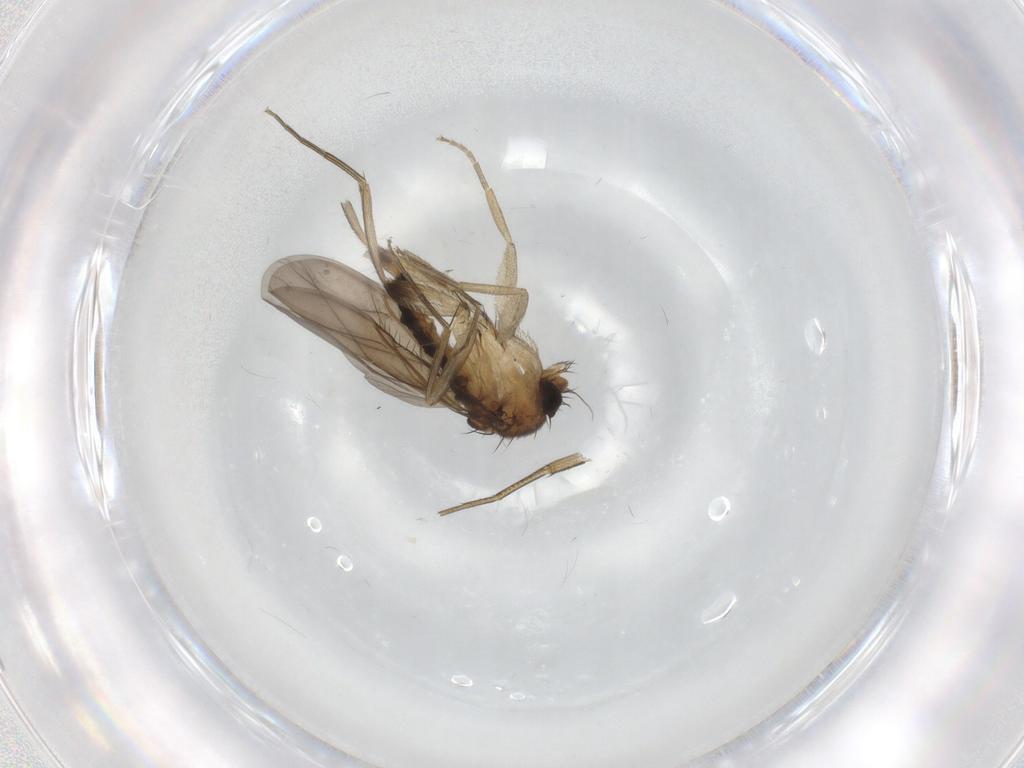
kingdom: Animalia
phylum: Arthropoda
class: Insecta
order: Diptera
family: Phoridae
